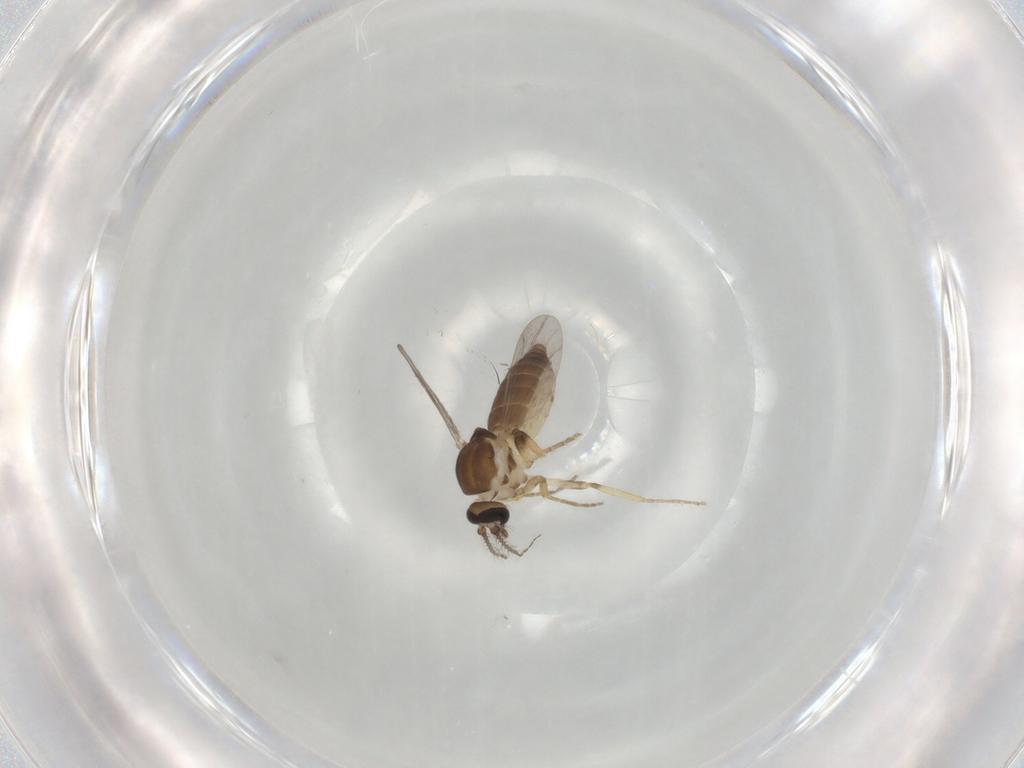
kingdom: Animalia
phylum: Arthropoda
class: Insecta
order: Diptera
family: Ceratopogonidae
